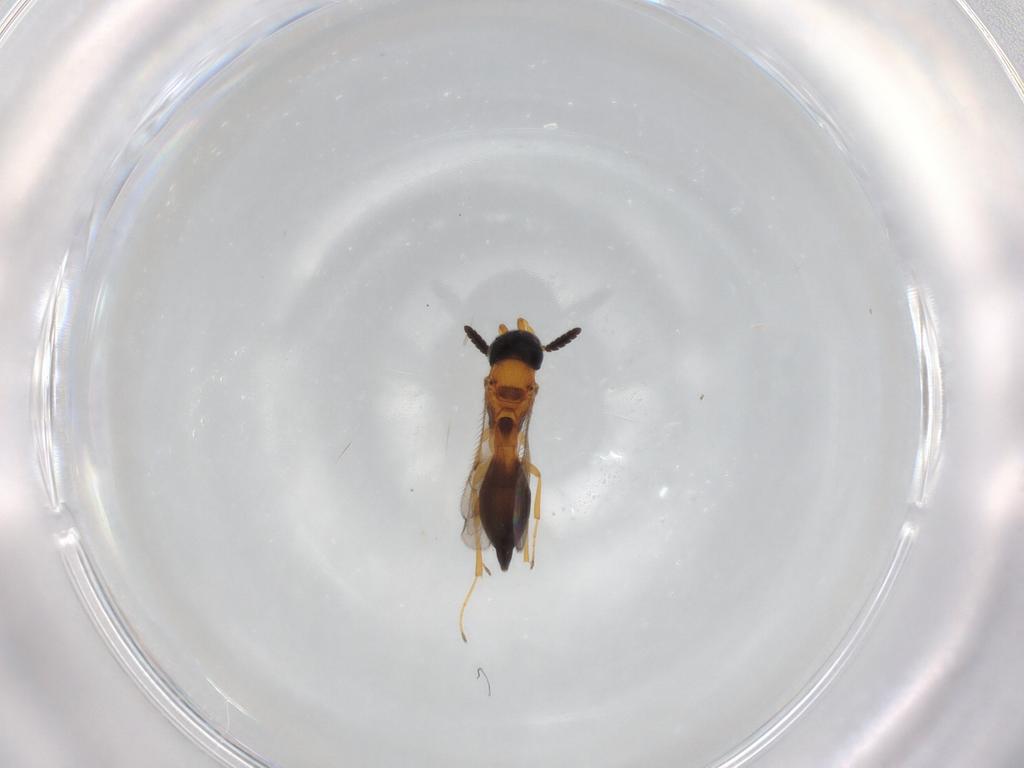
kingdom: Animalia
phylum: Arthropoda
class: Insecta
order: Hymenoptera
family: Scelionidae
